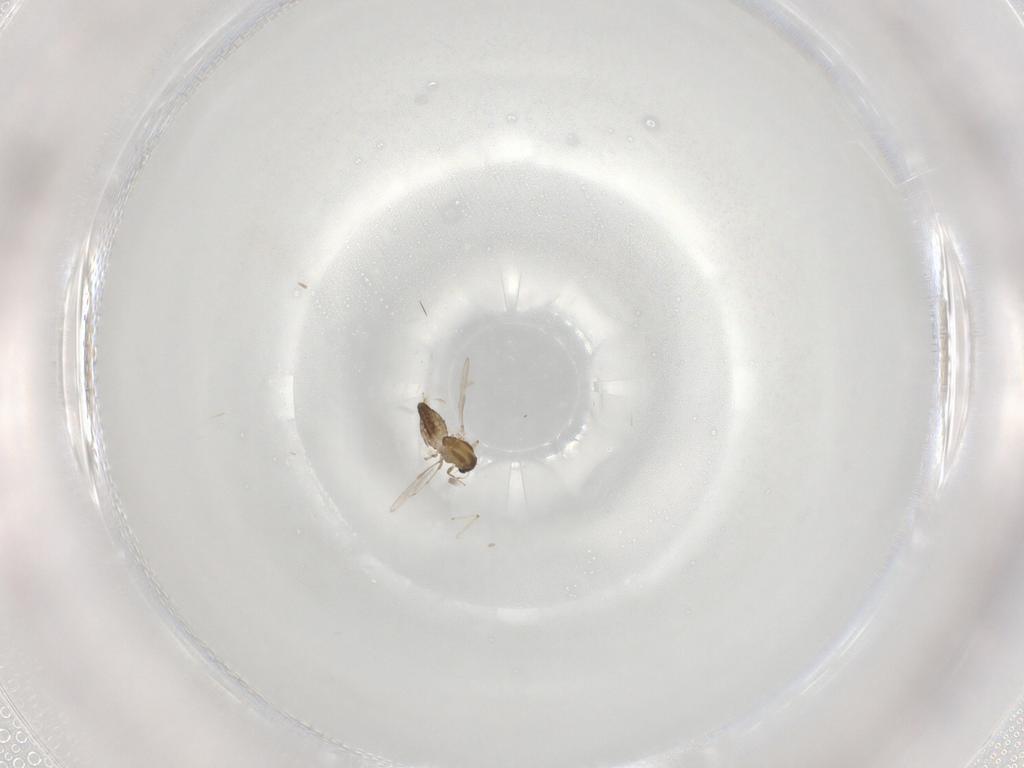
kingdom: Animalia
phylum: Arthropoda
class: Insecta
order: Diptera
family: Chironomidae
